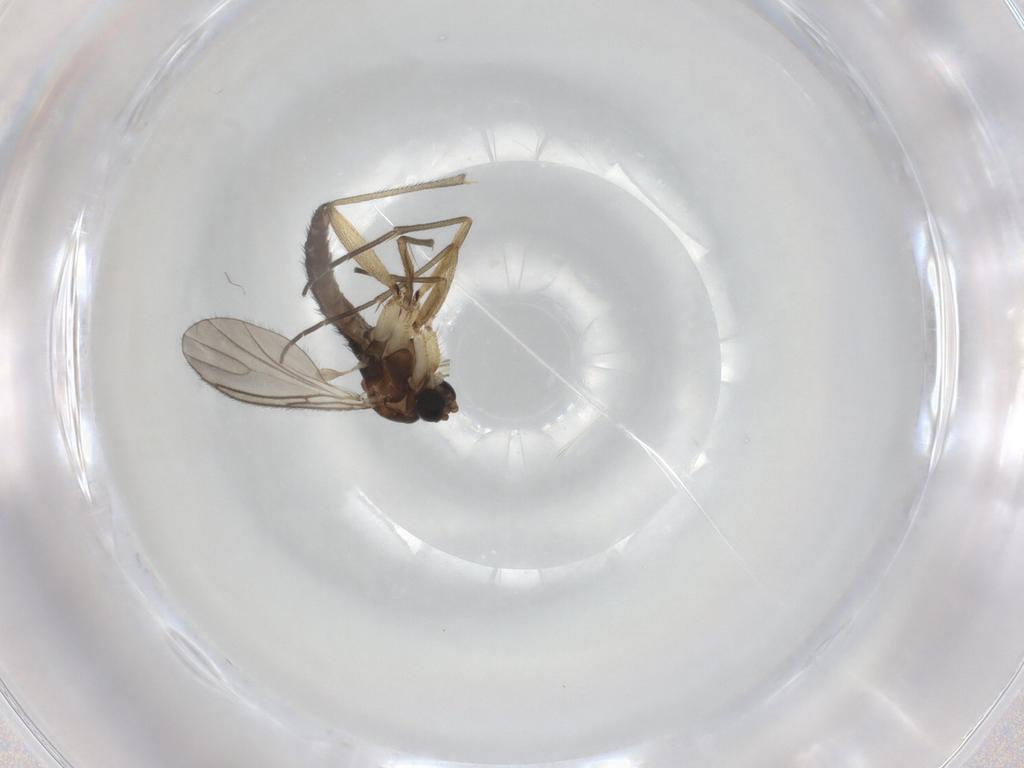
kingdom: Animalia
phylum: Arthropoda
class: Insecta
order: Diptera
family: Sciaridae
